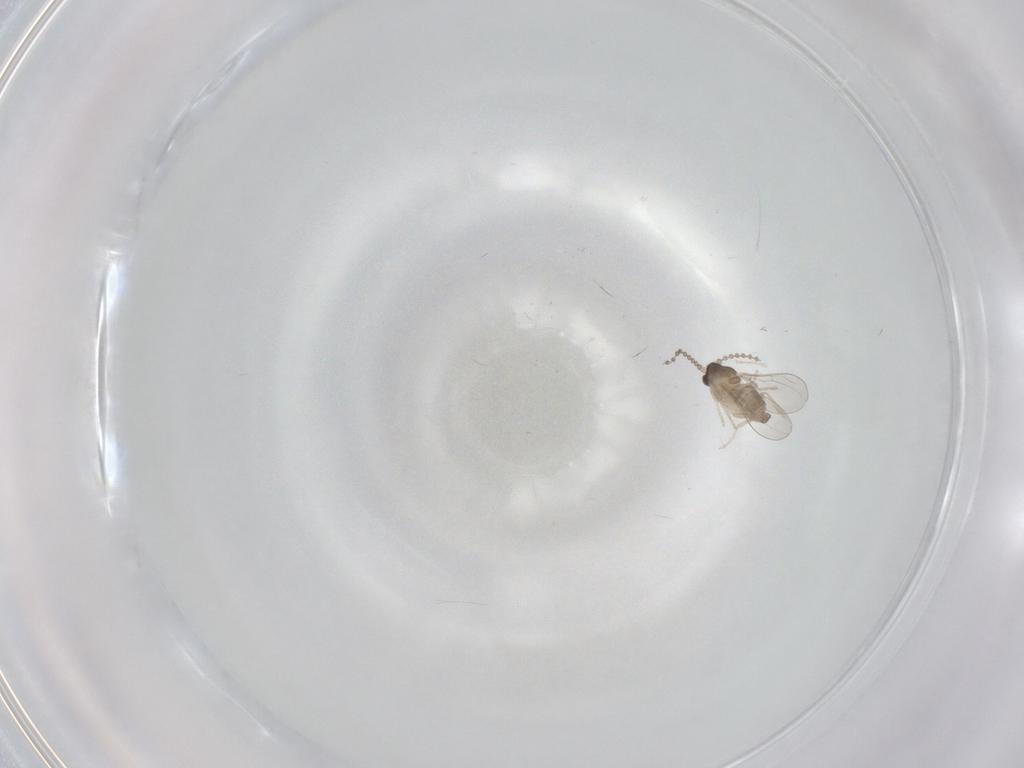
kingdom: Animalia
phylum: Arthropoda
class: Insecta
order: Diptera
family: Cecidomyiidae
